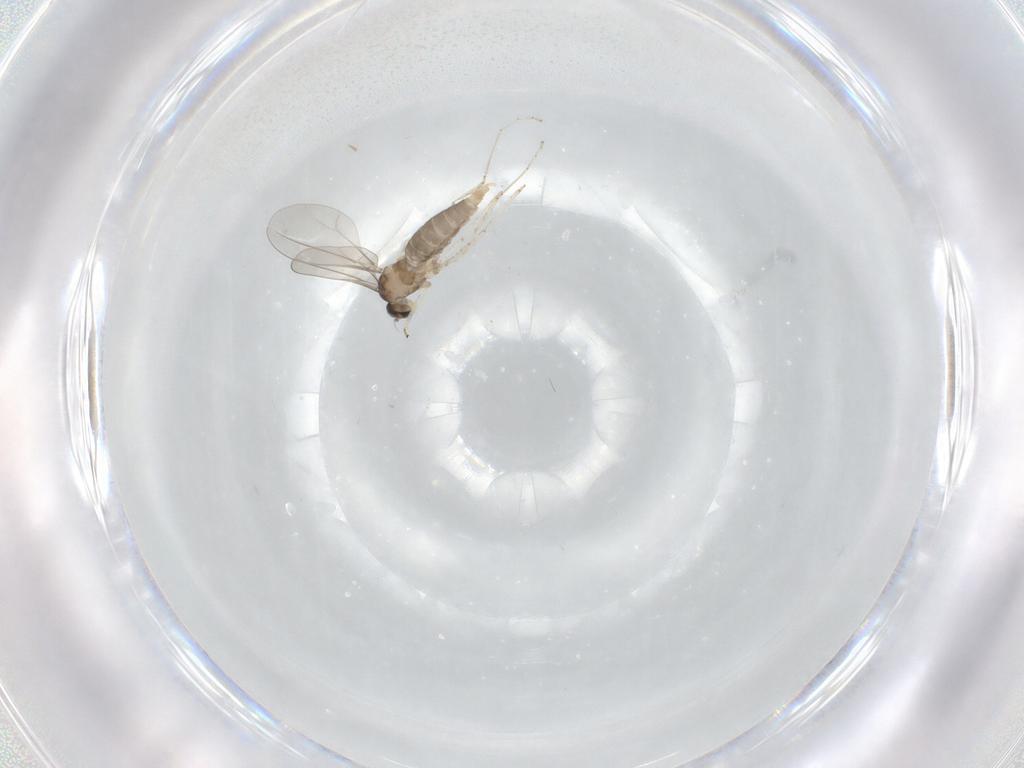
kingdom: Animalia
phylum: Arthropoda
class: Insecta
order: Diptera
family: Cecidomyiidae
